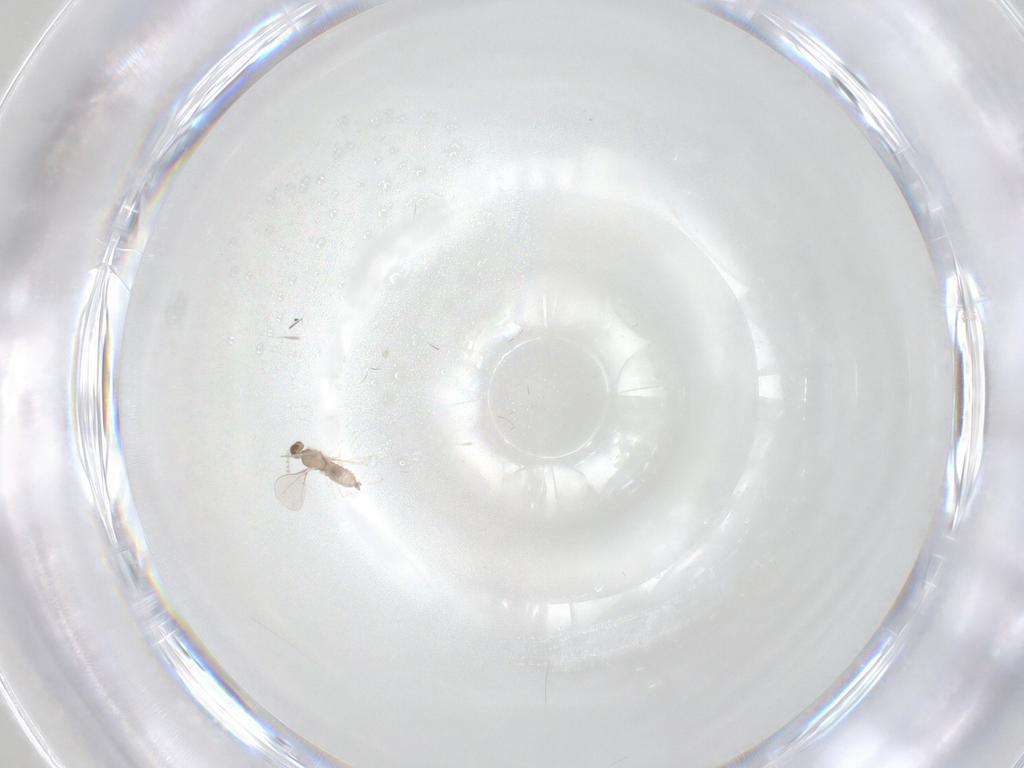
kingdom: Animalia
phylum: Arthropoda
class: Insecta
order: Diptera
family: Cecidomyiidae
